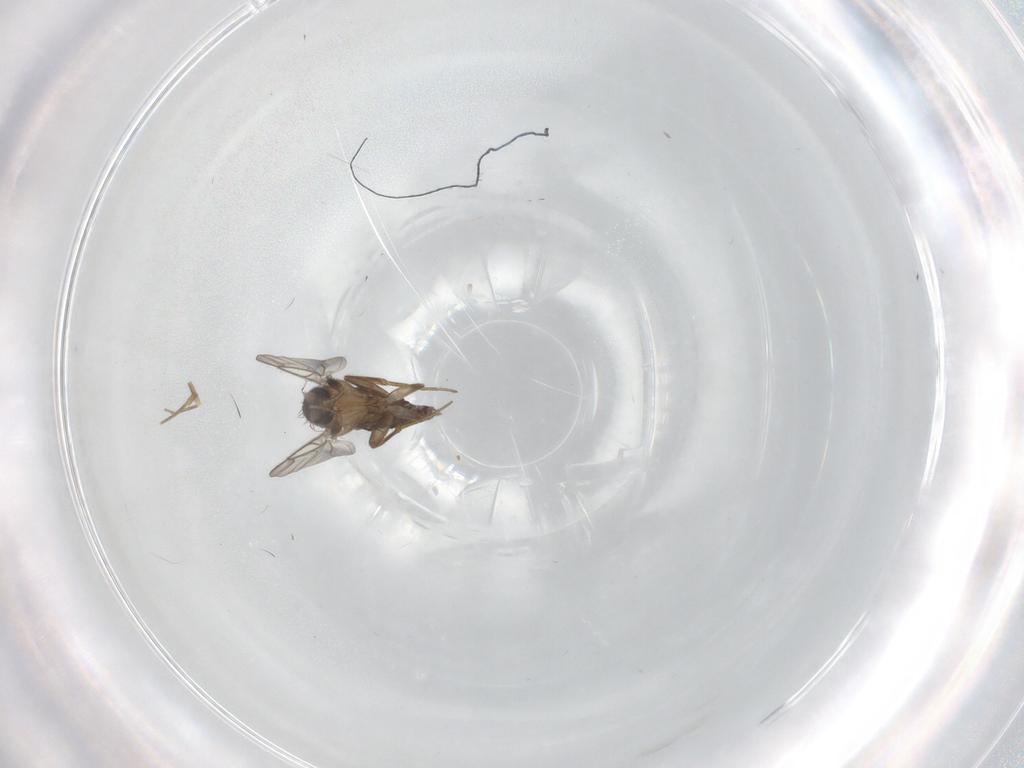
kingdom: Animalia
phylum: Arthropoda
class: Insecta
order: Diptera
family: Phoridae
